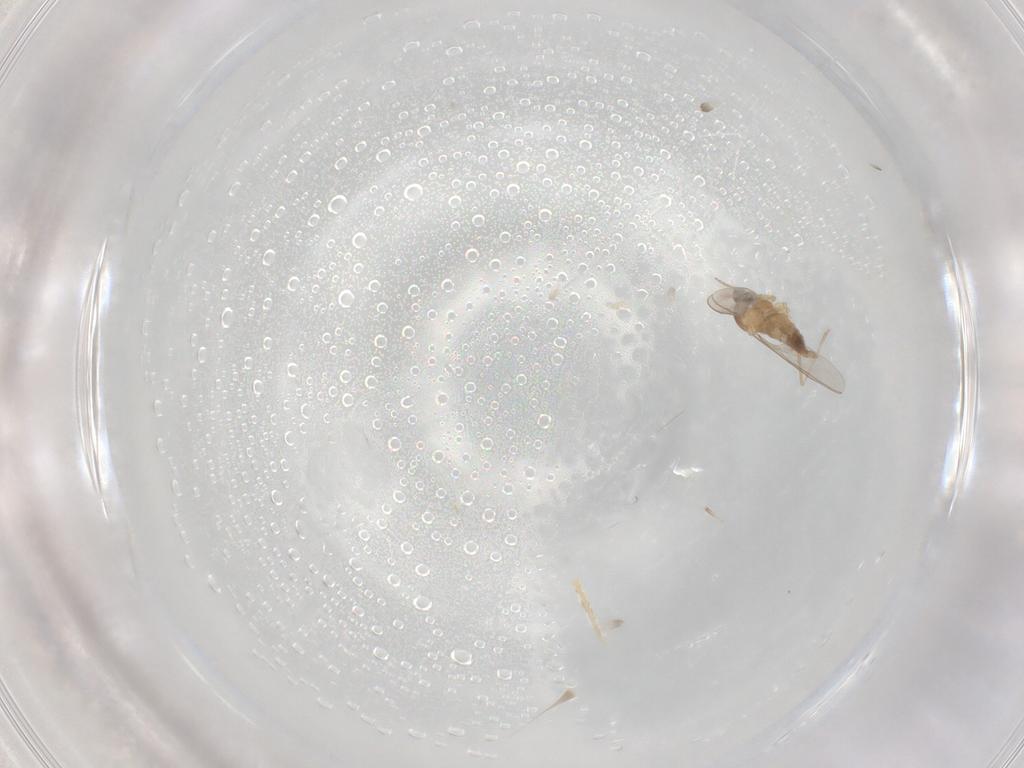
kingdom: Animalia
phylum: Arthropoda
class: Insecta
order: Diptera
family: Cecidomyiidae
